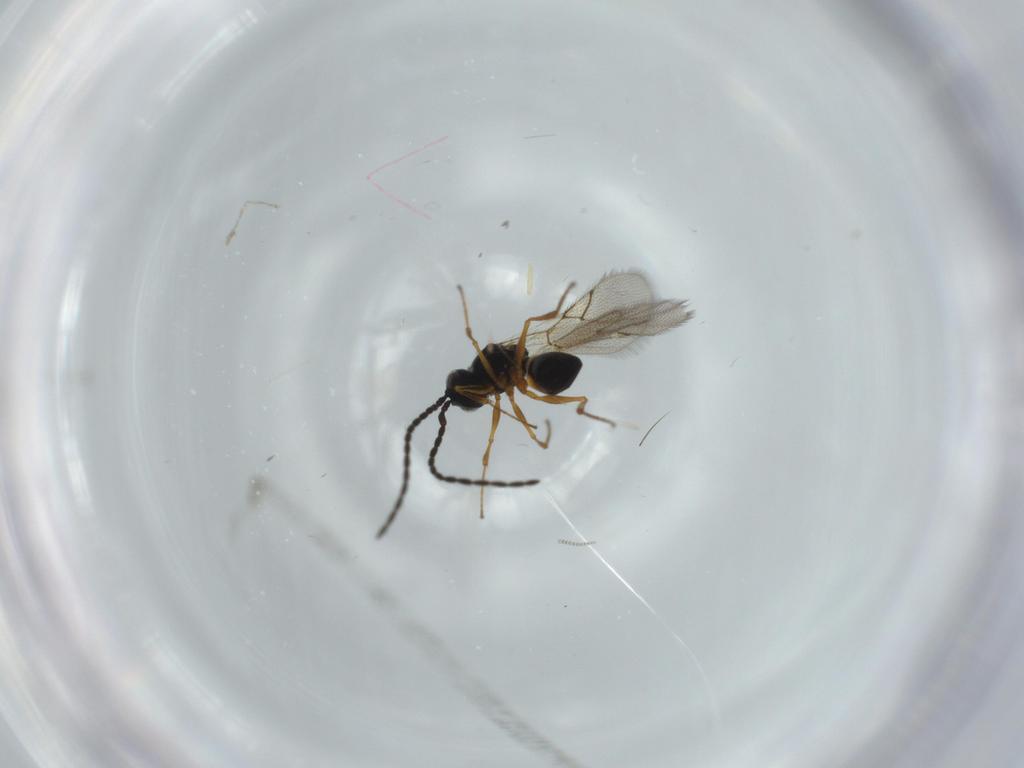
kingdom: Animalia
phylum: Arthropoda
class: Insecta
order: Hymenoptera
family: Figitidae
